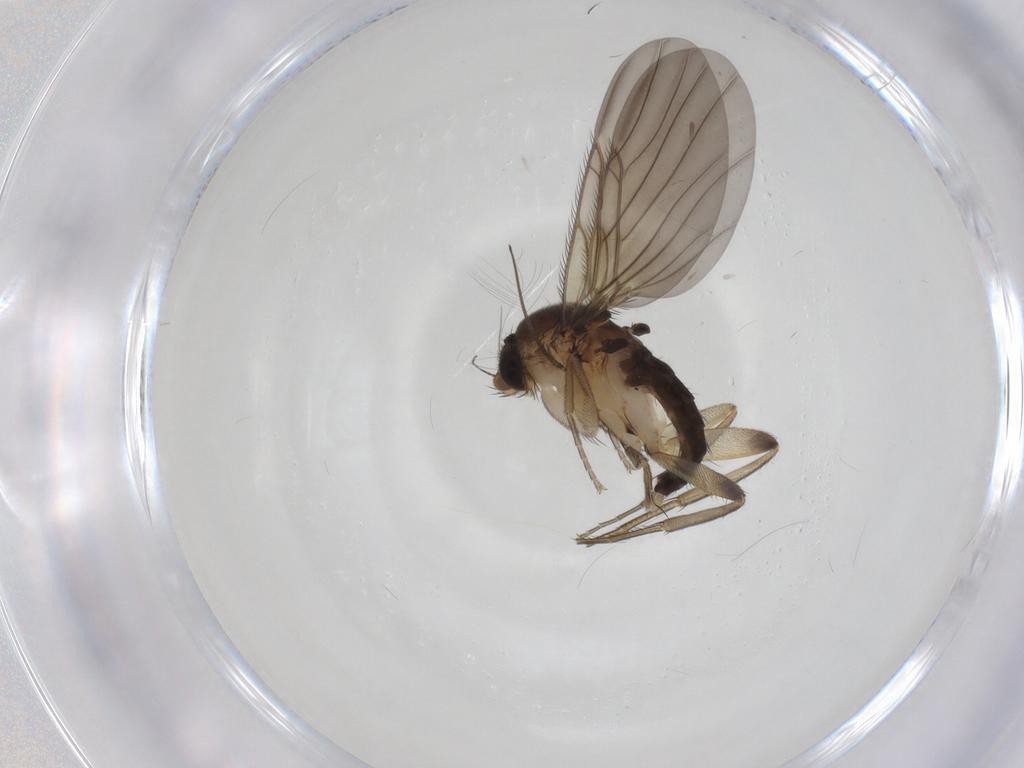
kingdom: Animalia
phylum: Arthropoda
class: Insecta
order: Diptera
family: Phoridae
